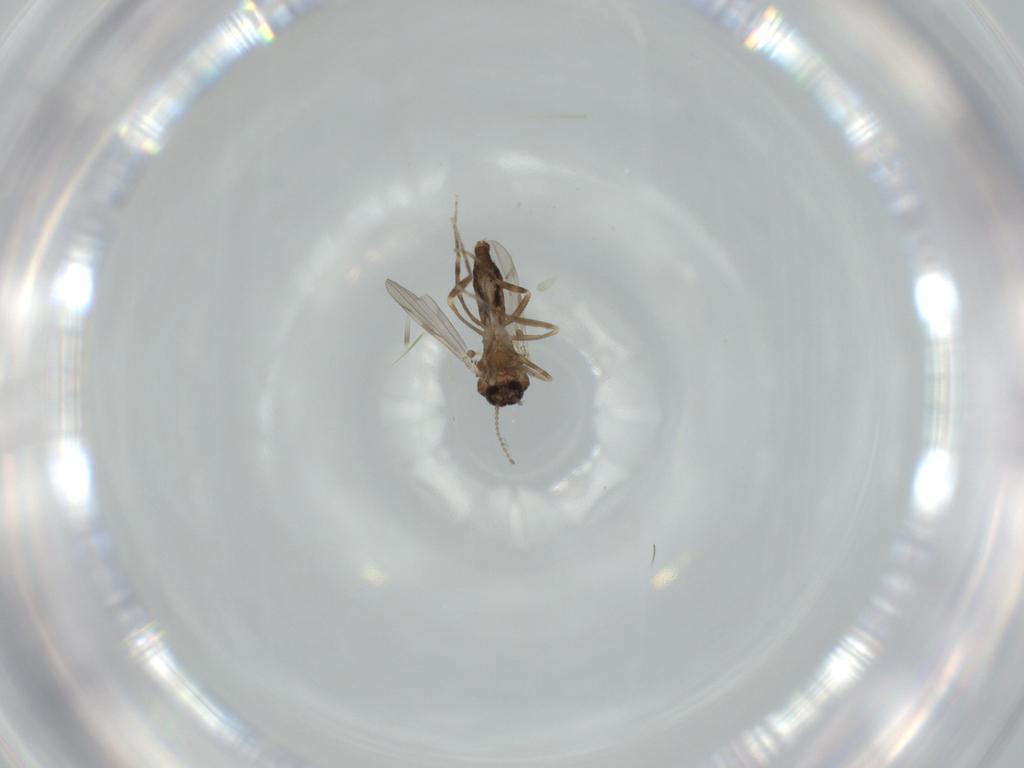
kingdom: Animalia
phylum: Arthropoda
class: Insecta
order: Diptera
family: Ceratopogonidae
